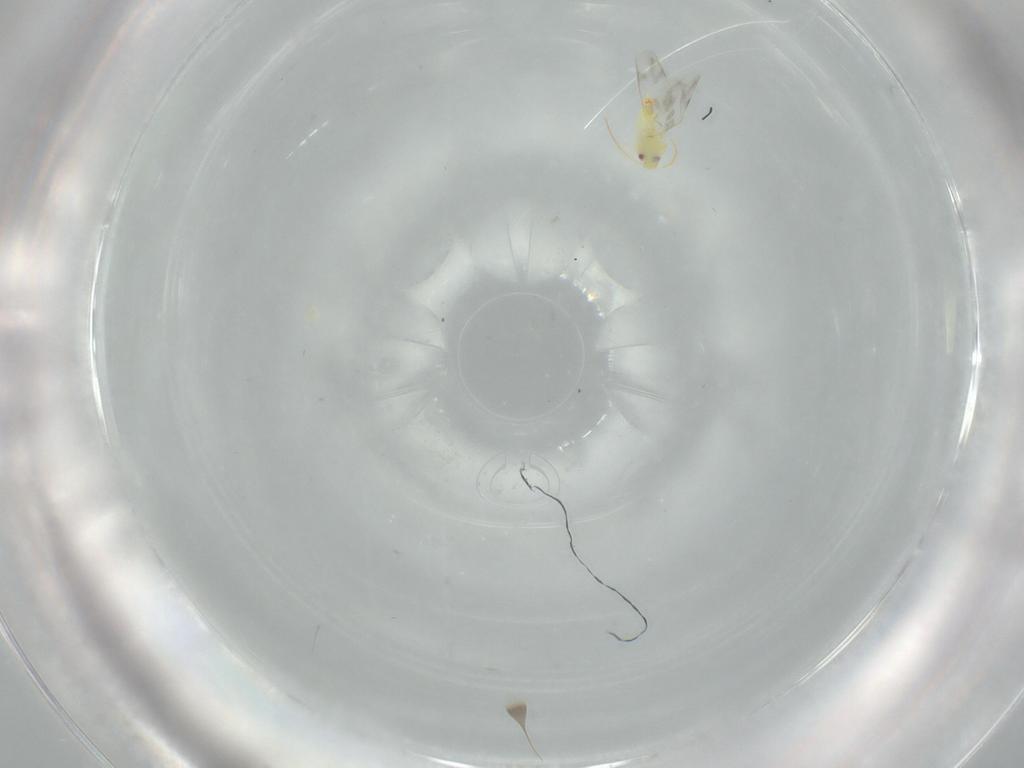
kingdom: Animalia
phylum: Arthropoda
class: Insecta
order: Hemiptera
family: Aleyrodidae
